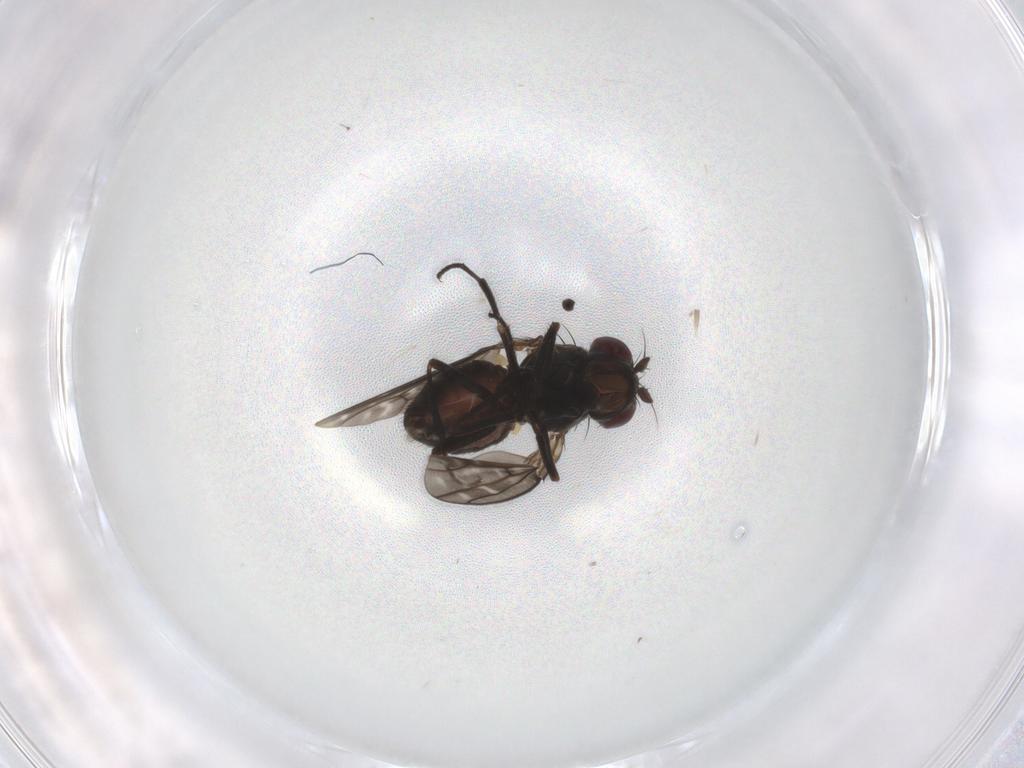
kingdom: Animalia
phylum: Arthropoda
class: Insecta
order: Diptera
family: Ephydridae
